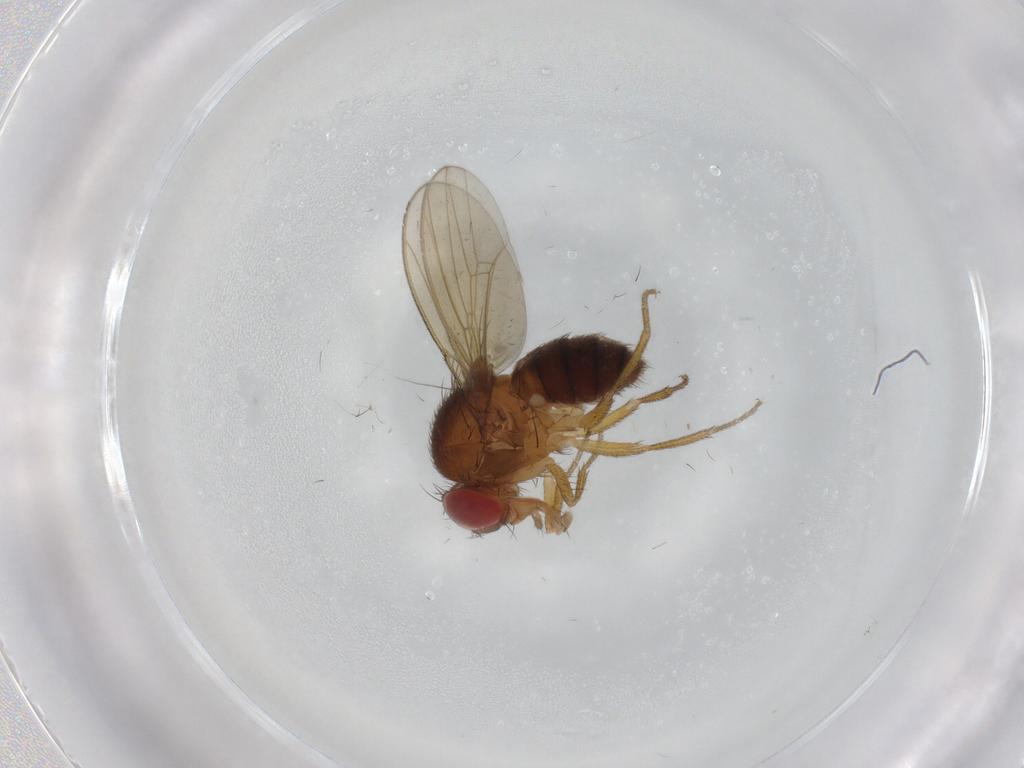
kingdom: Animalia
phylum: Arthropoda
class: Insecta
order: Diptera
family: Drosophilidae
